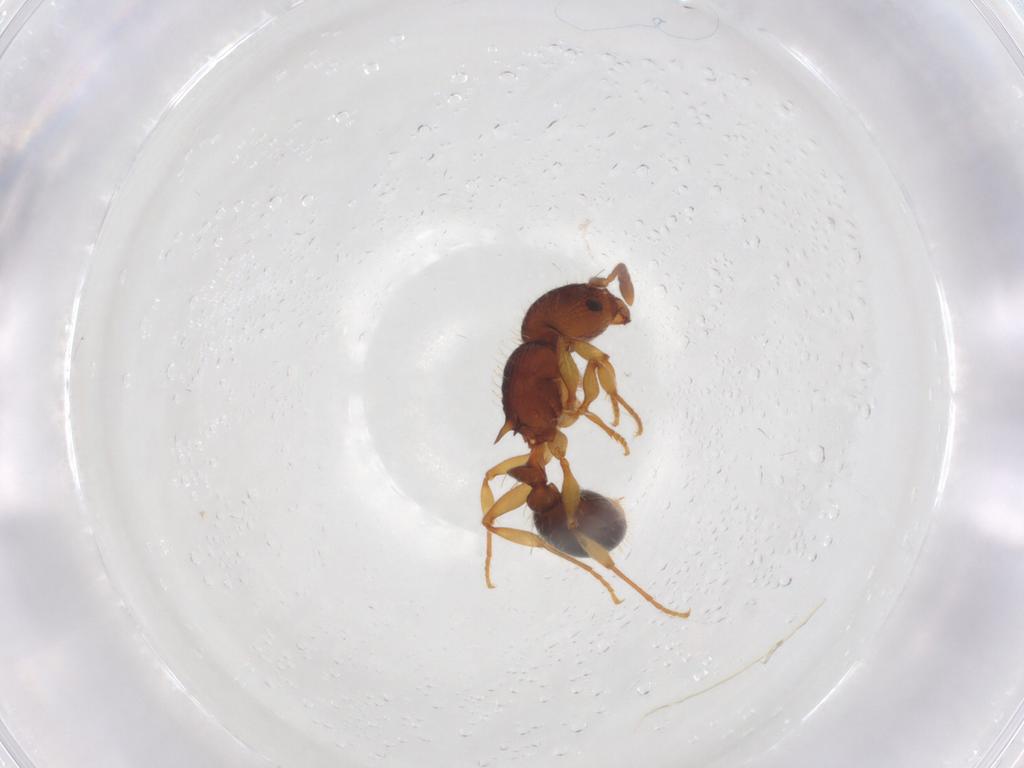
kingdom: Animalia
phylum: Arthropoda
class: Insecta
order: Hymenoptera
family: Formicidae
